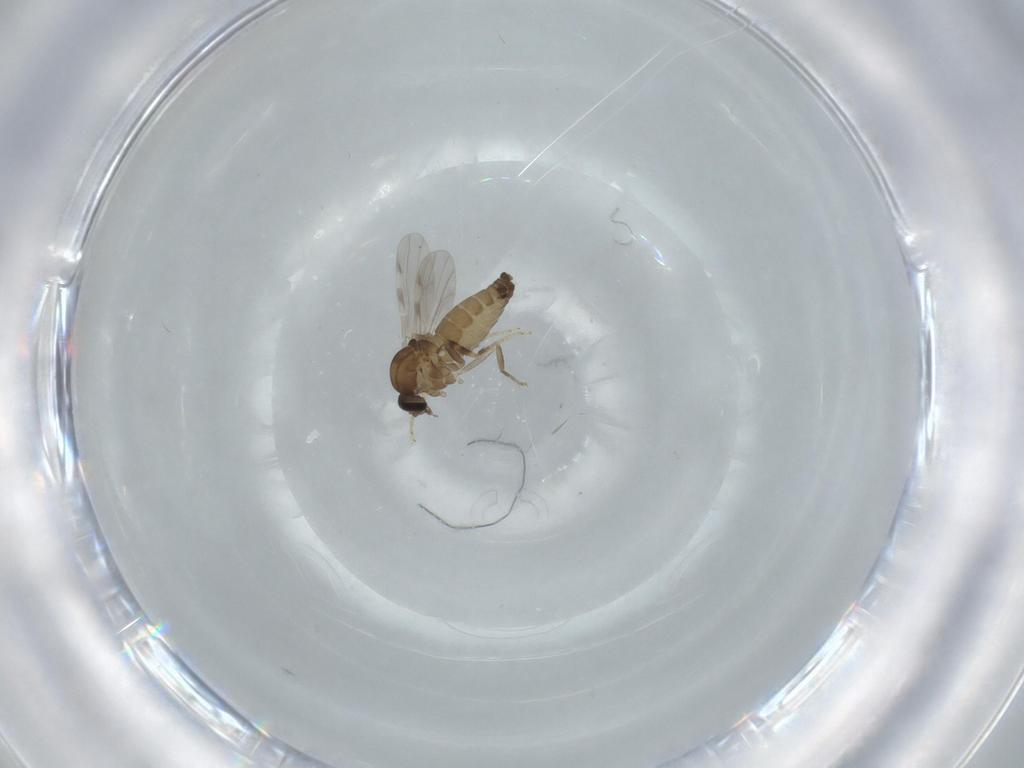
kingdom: Animalia
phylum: Arthropoda
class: Insecta
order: Diptera
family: Ceratopogonidae
